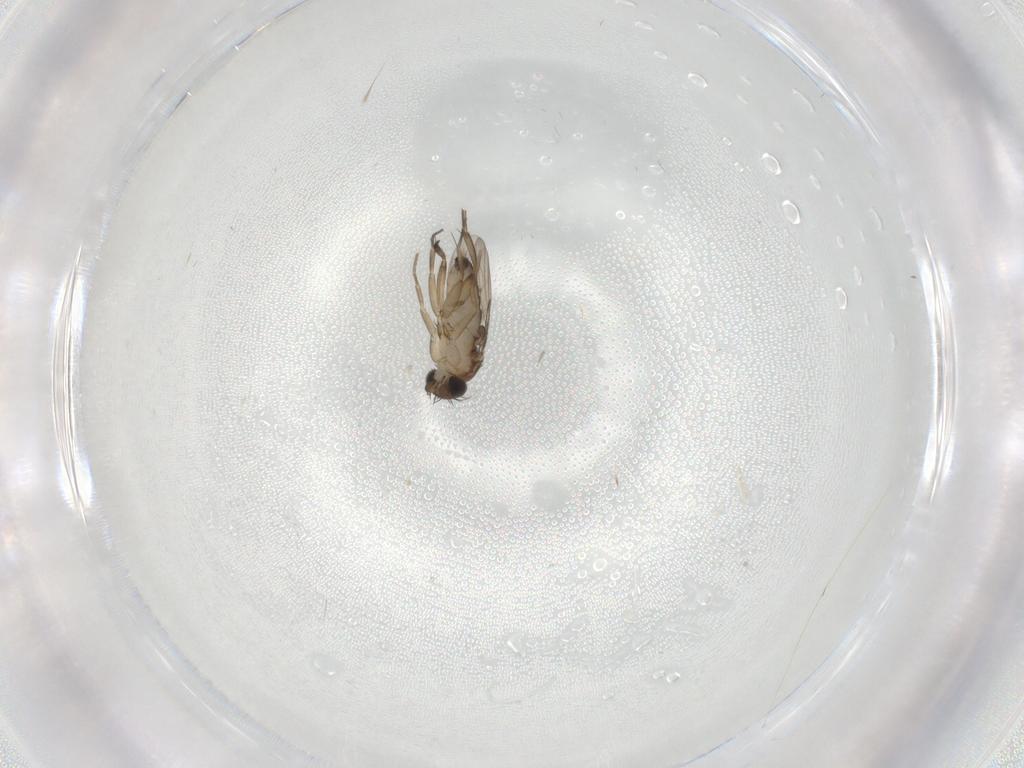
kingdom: Animalia
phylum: Arthropoda
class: Insecta
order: Diptera
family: Phoridae
